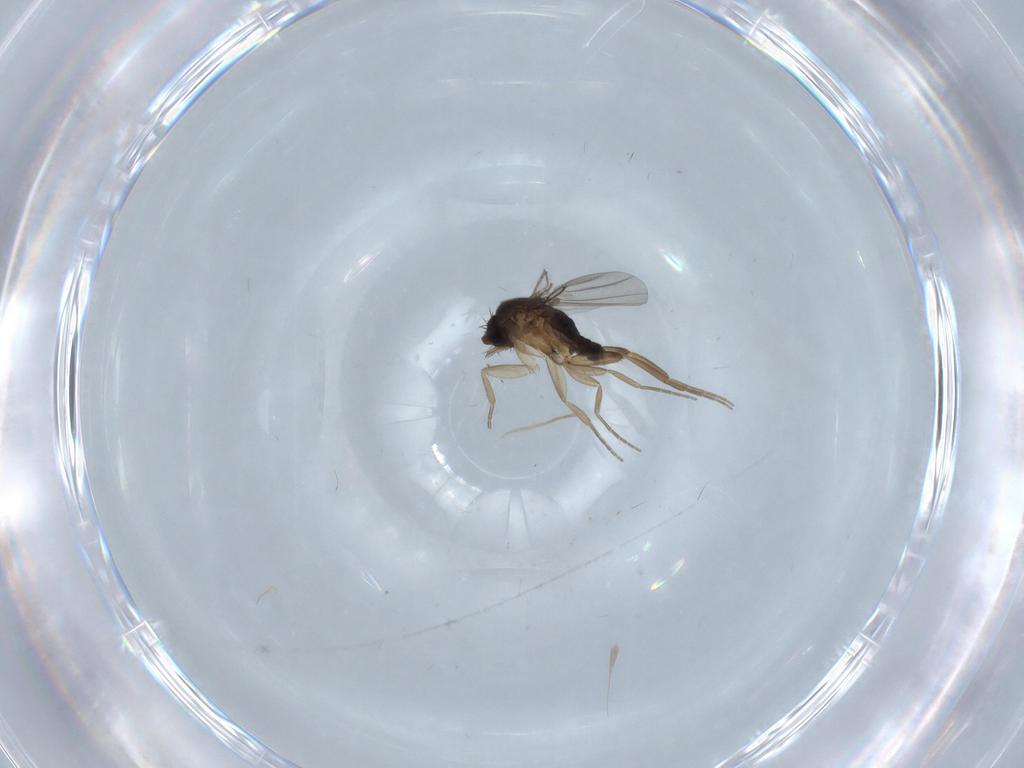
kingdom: Animalia
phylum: Arthropoda
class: Insecta
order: Diptera
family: Phoridae
